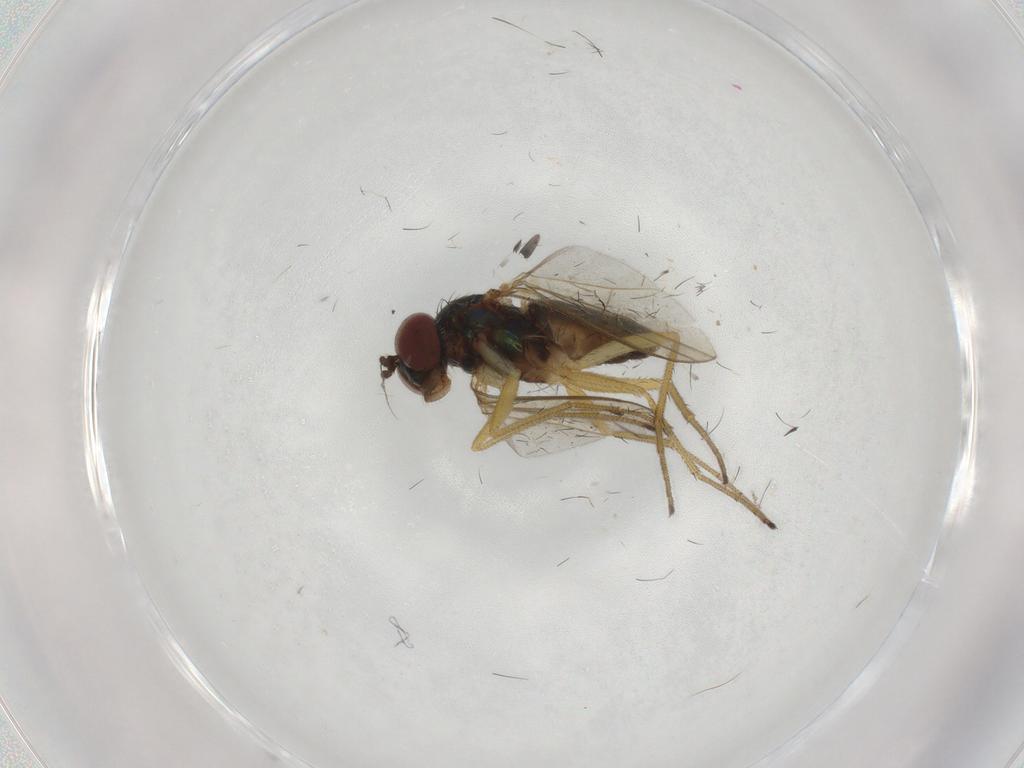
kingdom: Animalia
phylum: Arthropoda
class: Insecta
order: Diptera
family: Dolichopodidae
